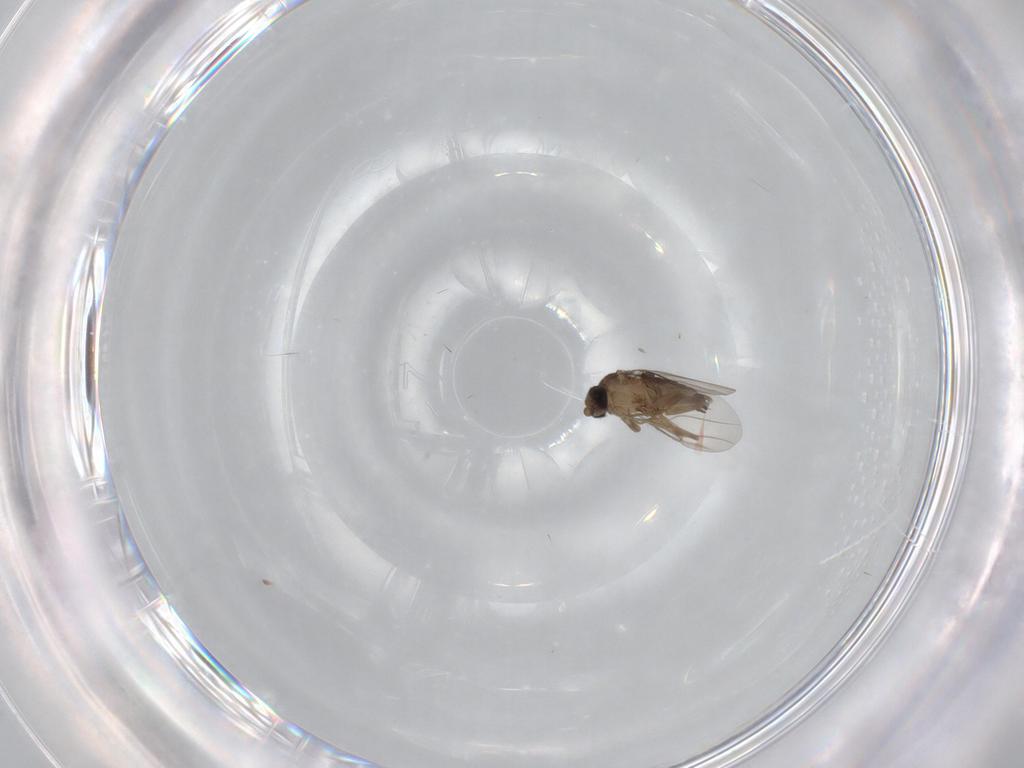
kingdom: Animalia
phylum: Arthropoda
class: Insecta
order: Diptera
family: Phoridae
